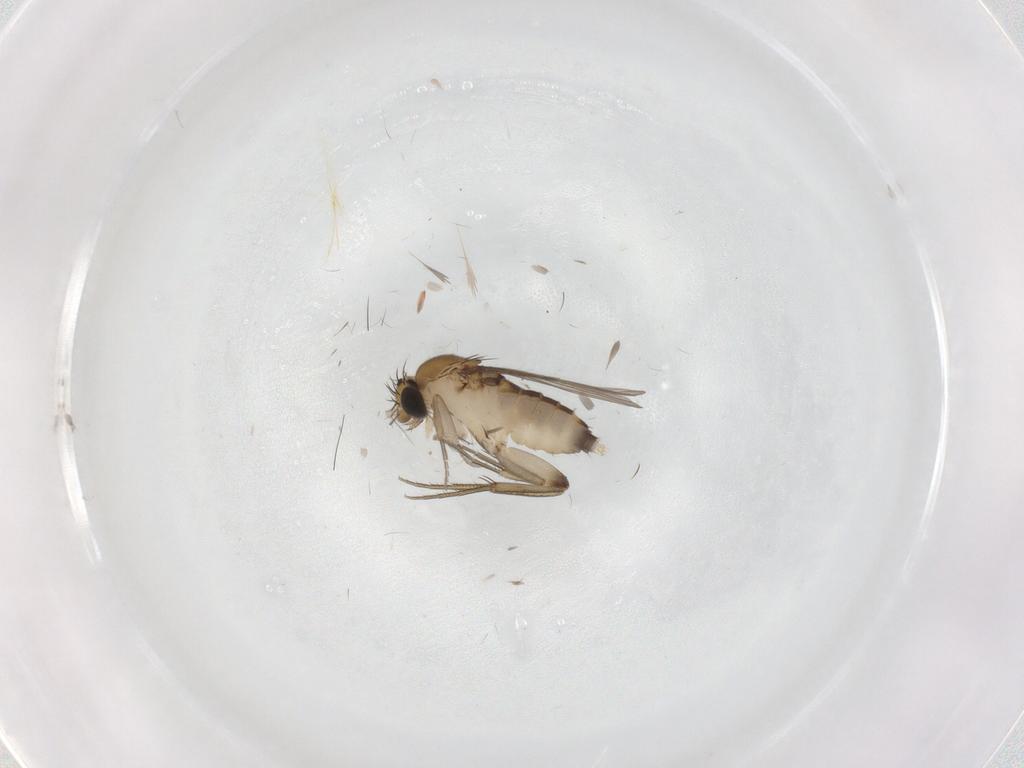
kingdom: Animalia
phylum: Arthropoda
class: Insecta
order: Diptera
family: Phoridae
